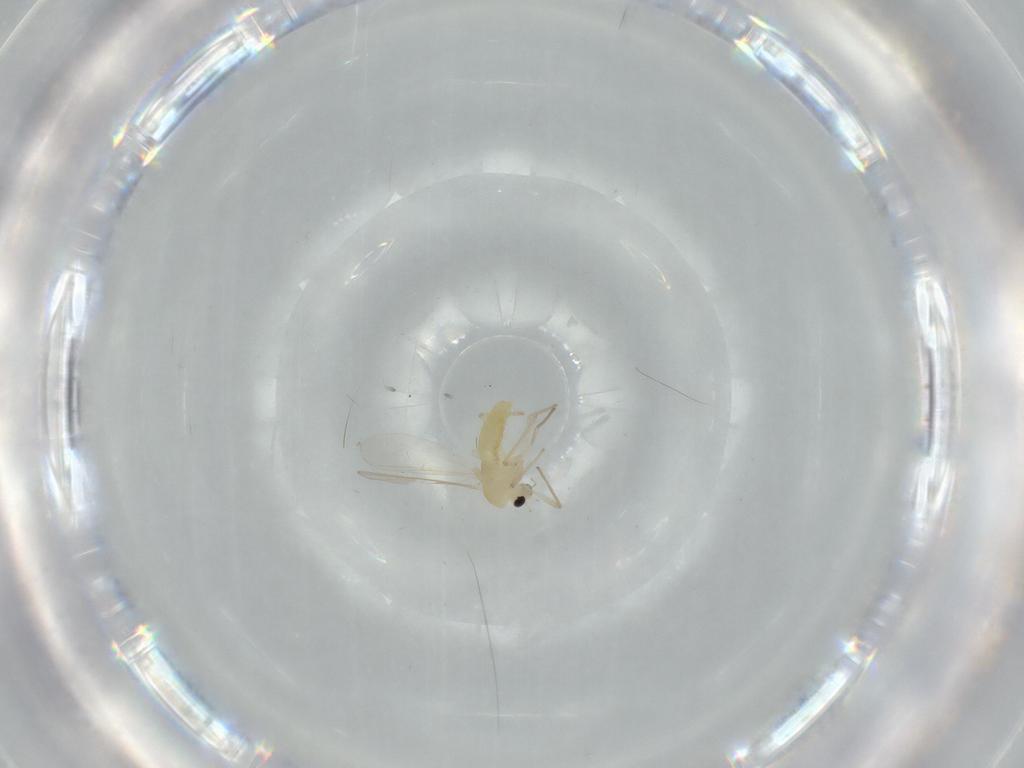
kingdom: Animalia
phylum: Arthropoda
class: Insecta
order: Diptera
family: Chironomidae
